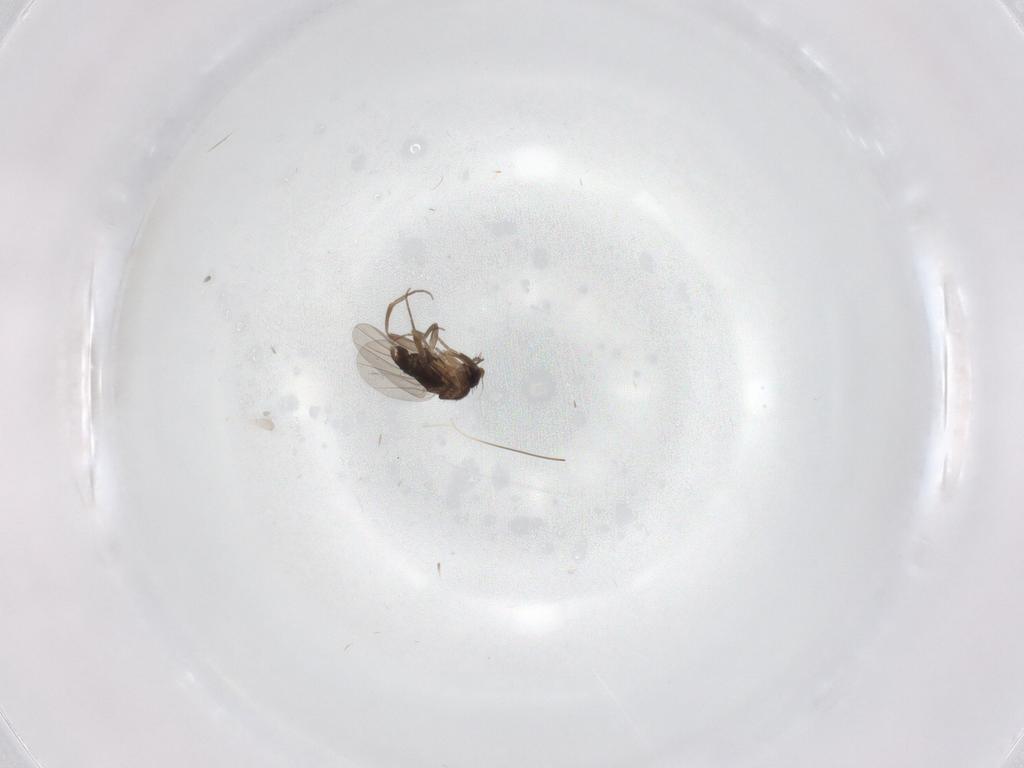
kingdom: Animalia
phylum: Arthropoda
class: Insecta
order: Diptera
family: Phoridae
